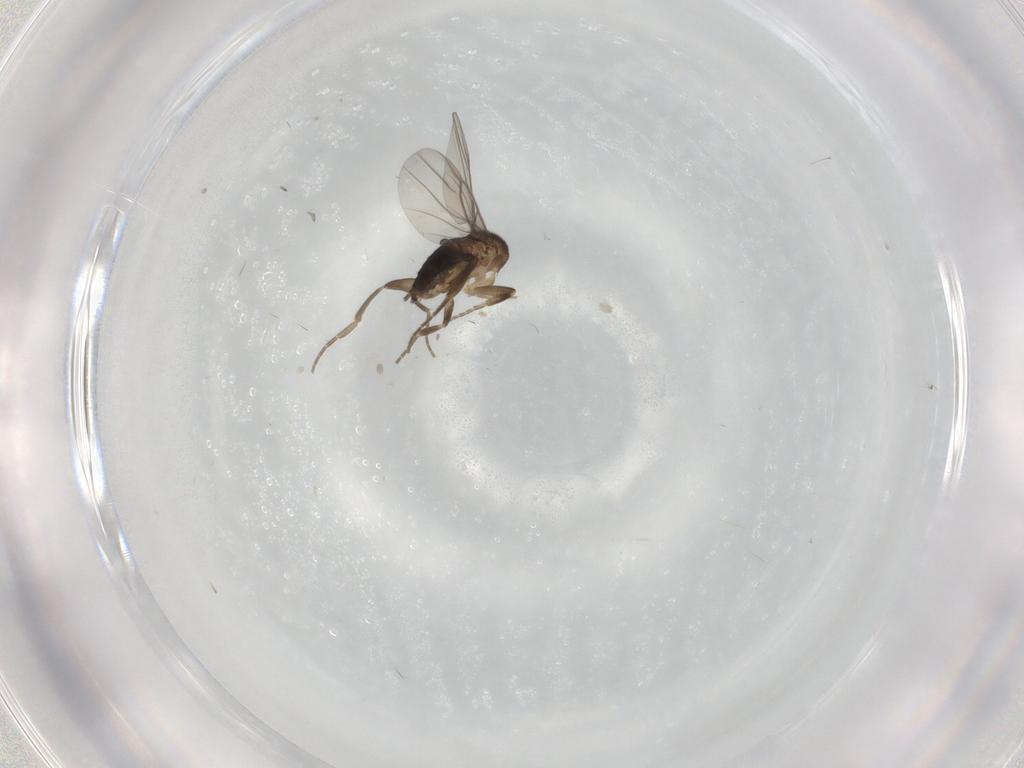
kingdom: Animalia
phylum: Arthropoda
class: Insecta
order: Diptera
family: Phoridae
